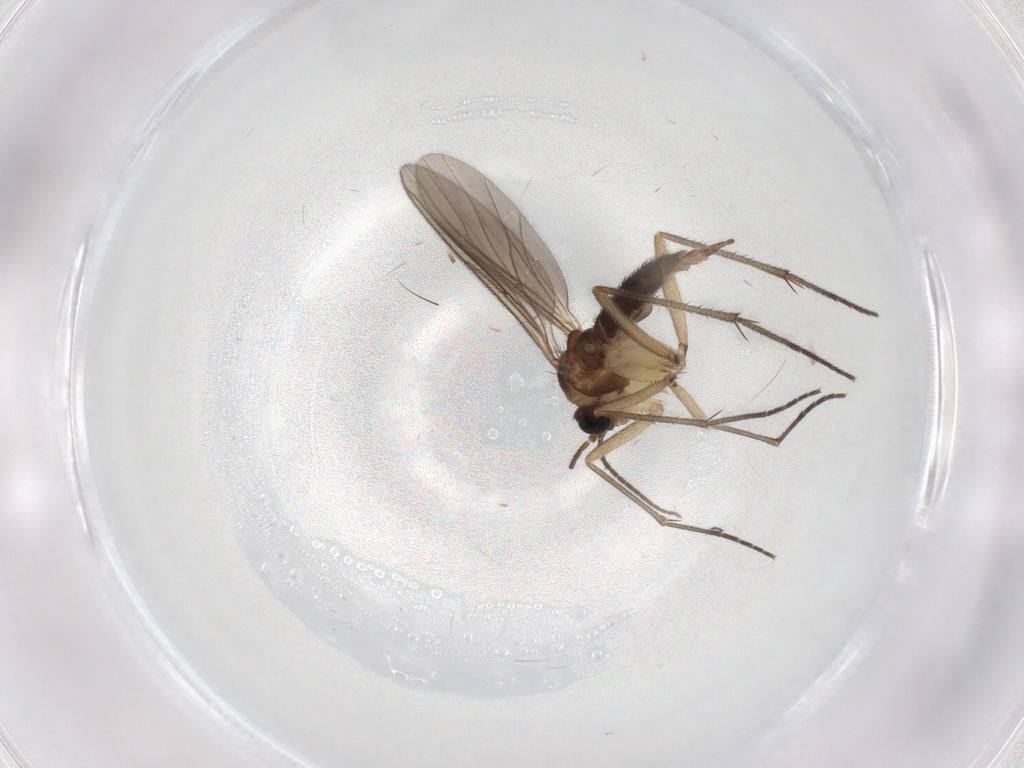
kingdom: Animalia
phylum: Arthropoda
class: Insecta
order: Diptera
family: Sciaridae
